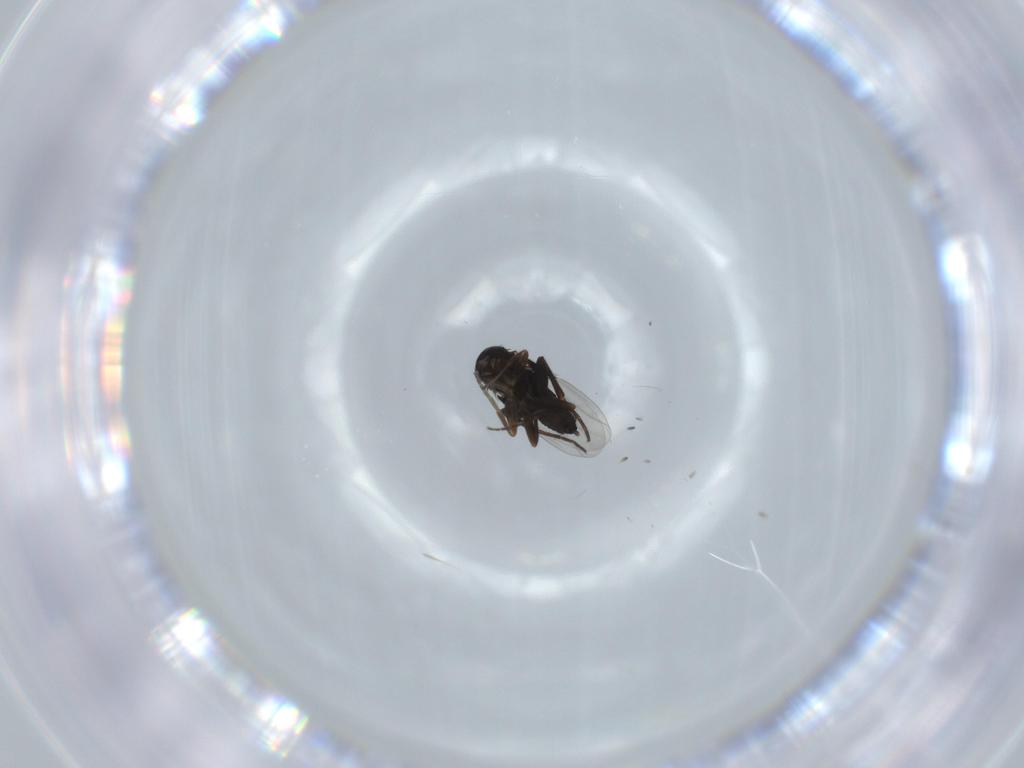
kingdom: Animalia
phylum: Arthropoda
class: Insecta
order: Diptera
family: Phoridae
